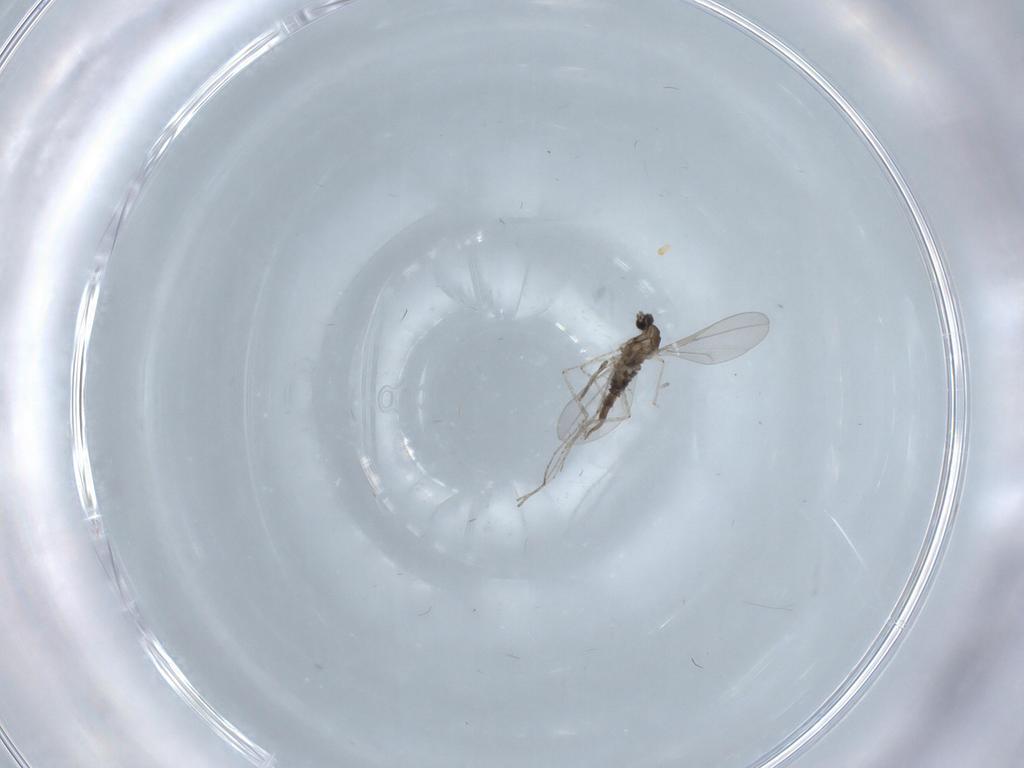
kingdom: Animalia
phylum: Arthropoda
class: Insecta
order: Diptera
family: Cecidomyiidae
